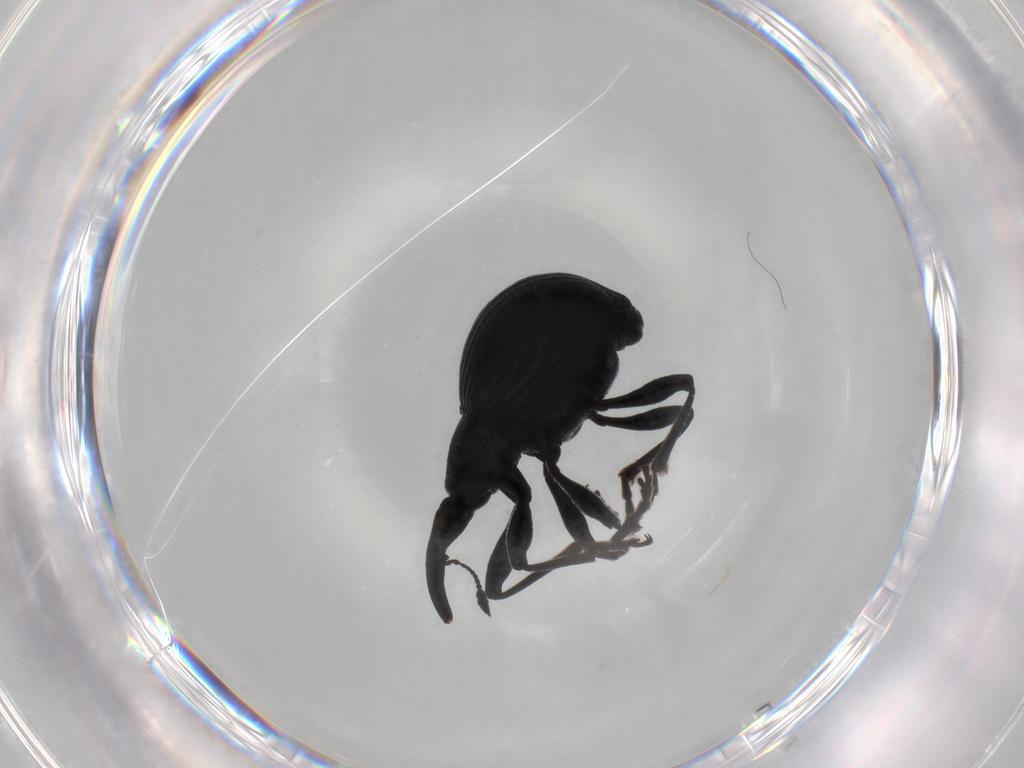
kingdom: Animalia
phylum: Arthropoda
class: Insecta
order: Coleoptera
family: Brentidae
